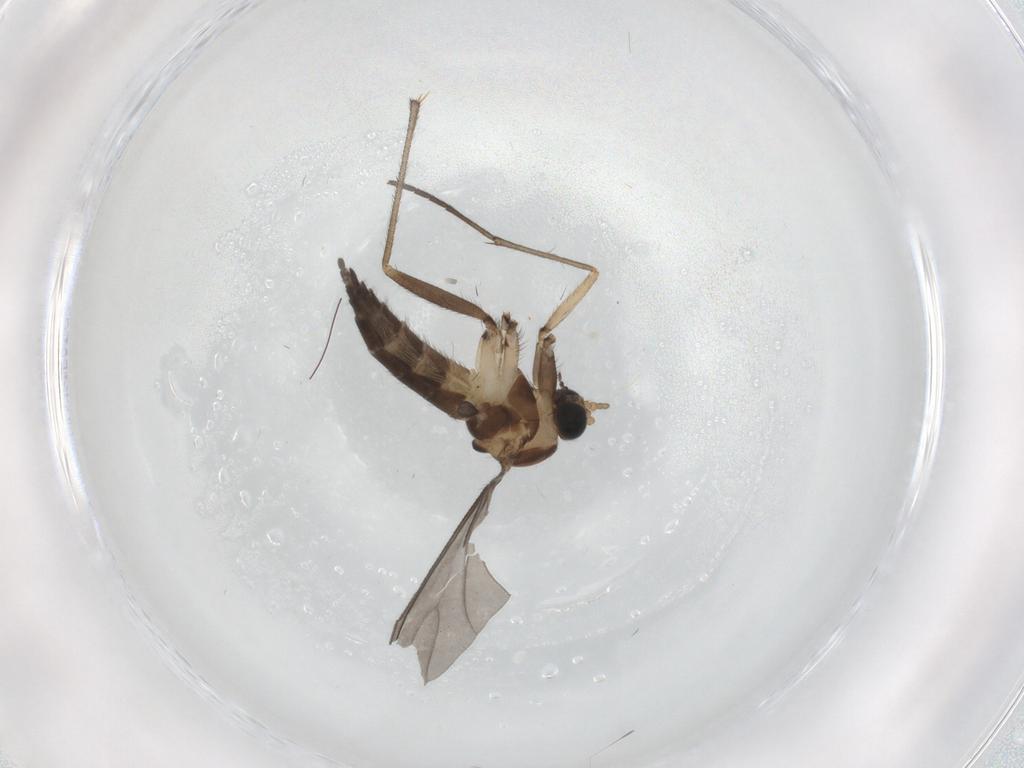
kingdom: Animalia
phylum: Arthropoda
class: Insecta
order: Diptera
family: Sciaridae
